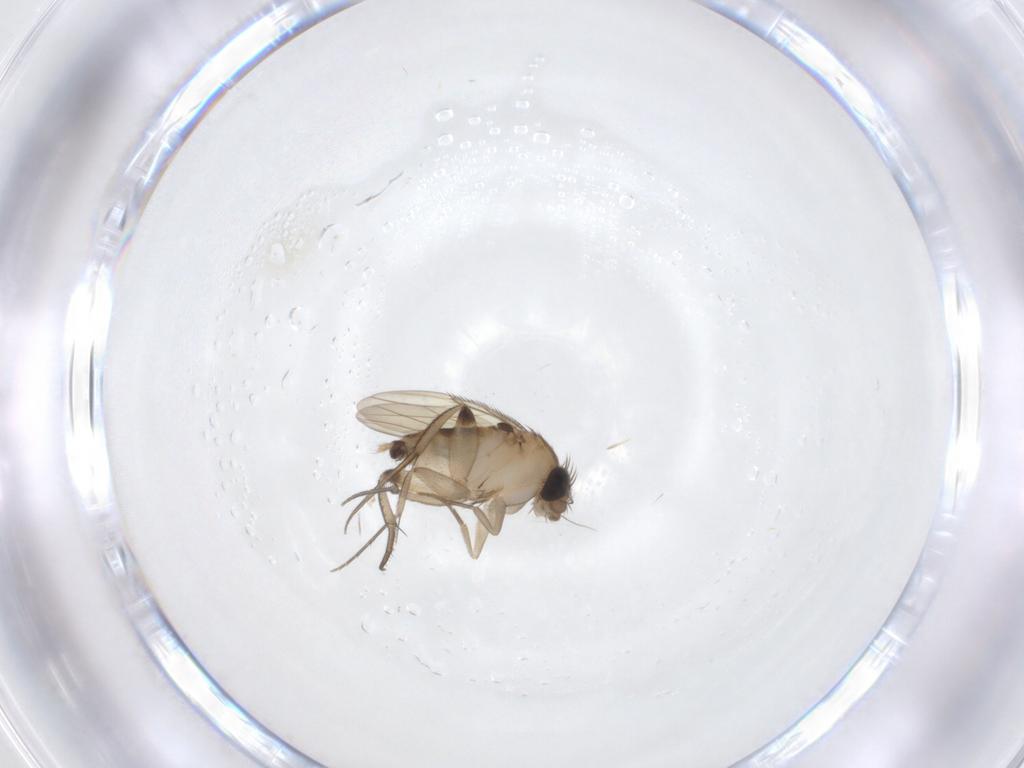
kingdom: Animalia
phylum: Arthropoda
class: Insecta
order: Diptera
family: Phoridae
